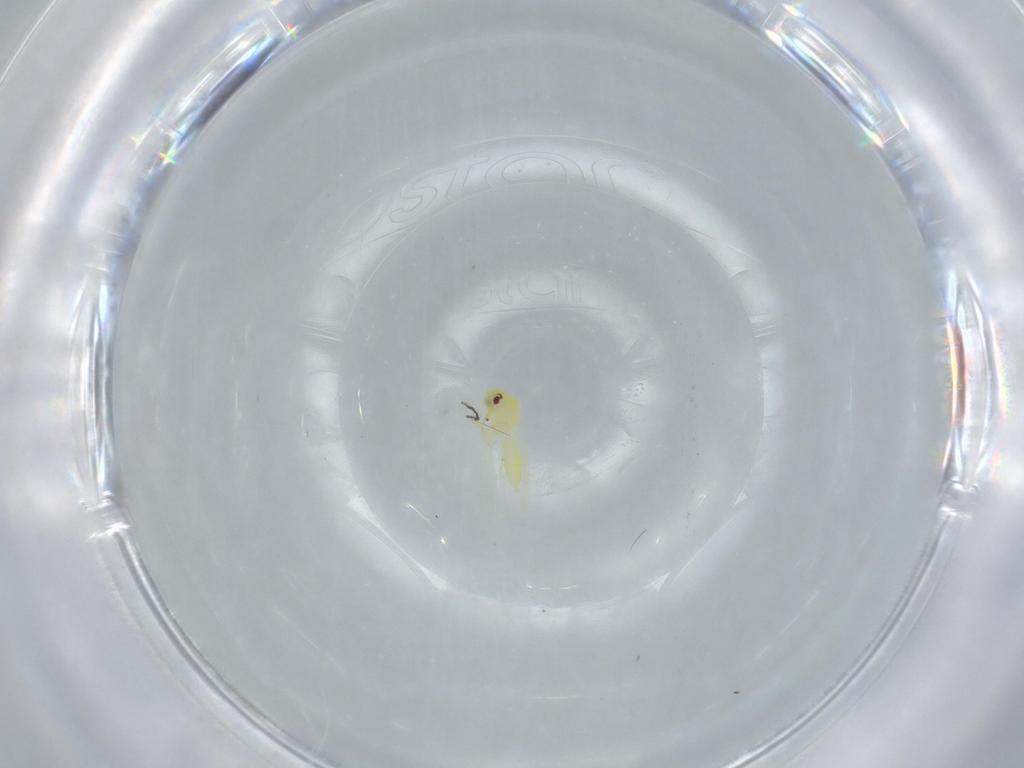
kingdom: Animalia
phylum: Arthropoda
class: Insecta
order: Hemiptera
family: Aleyrodidae
